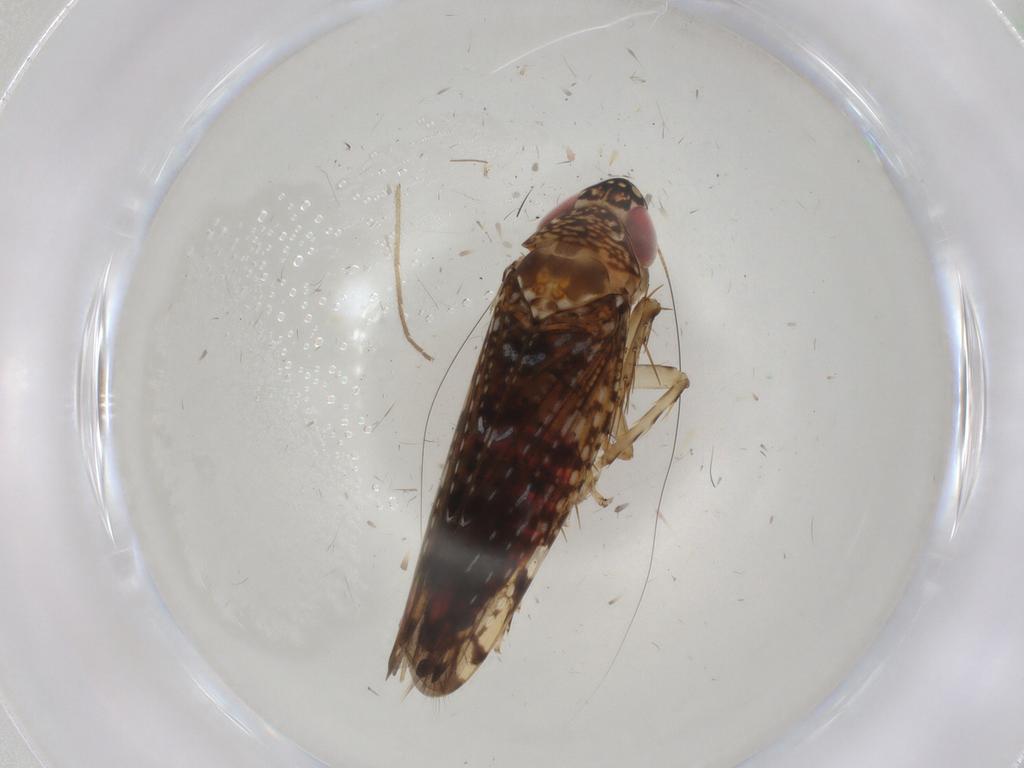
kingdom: Animalia
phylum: Arthropoda
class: Insecta
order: Hemiptera
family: Cicadellidae
